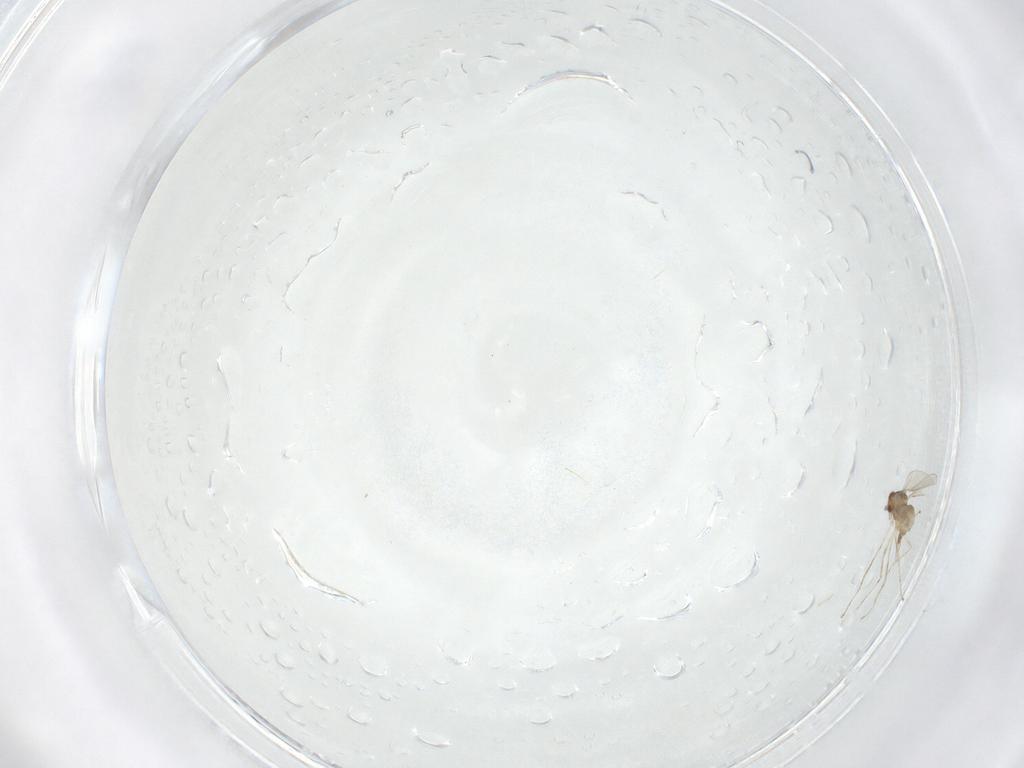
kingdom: Animalia
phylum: Arthropoda
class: Insecta
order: Diptera
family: Chironomidae
